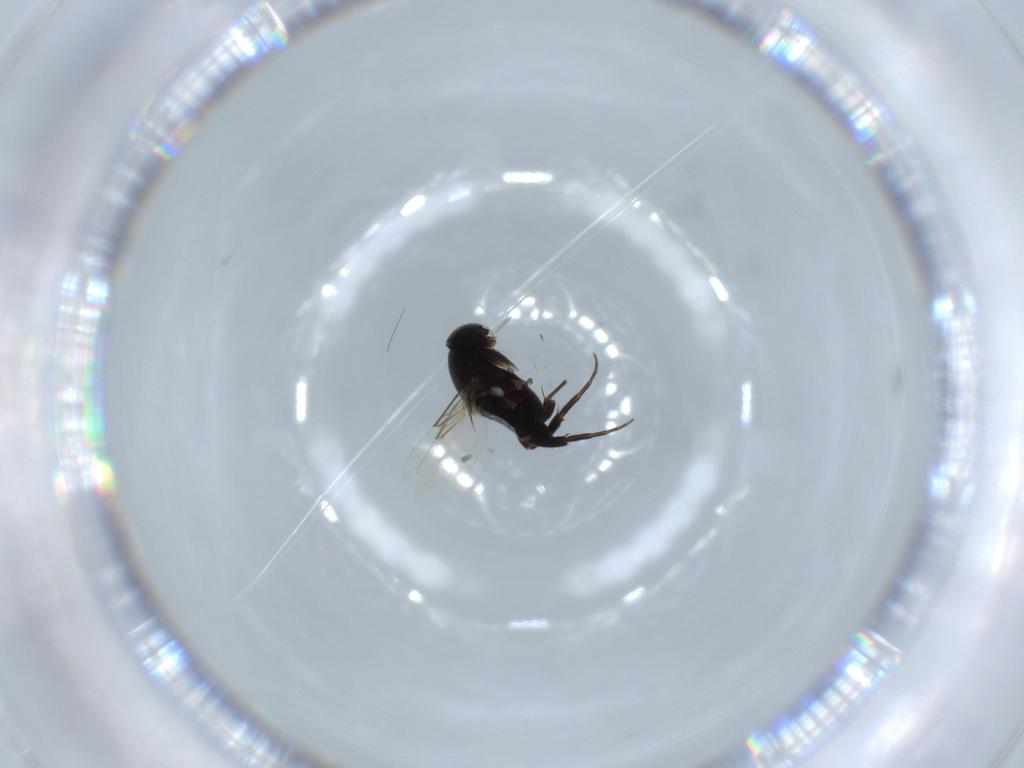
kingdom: Animalia
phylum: Arthropoda
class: Insecta
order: Diptera
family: Phoridae
